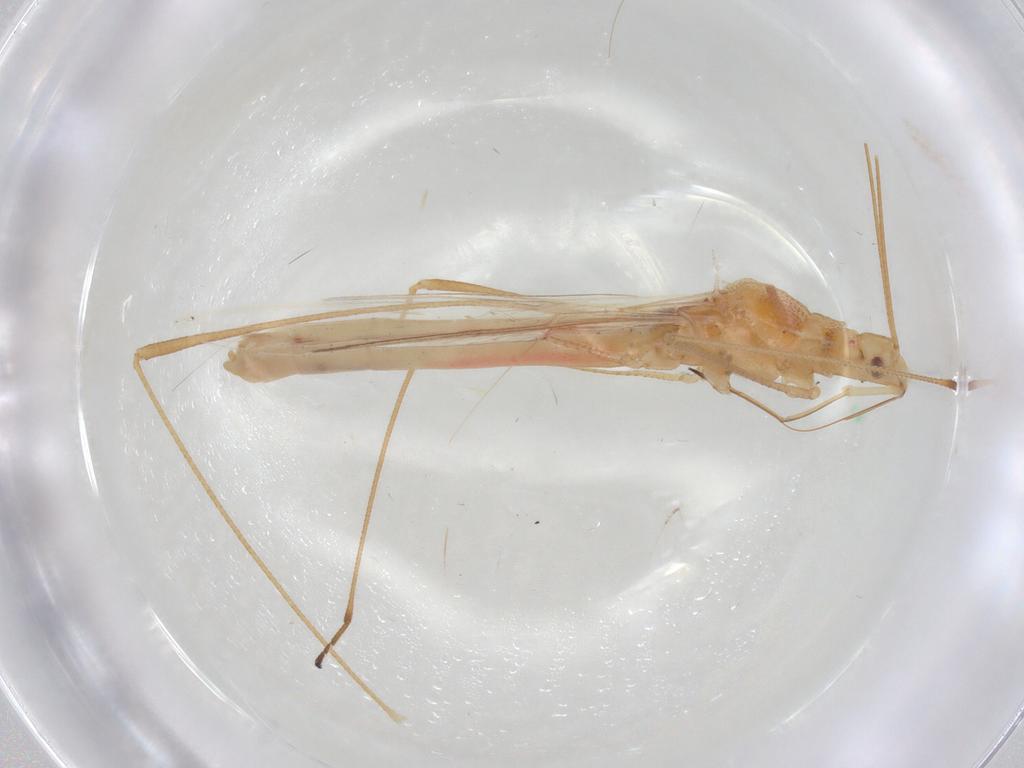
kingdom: Animalia
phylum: Arthropoda
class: Insecta
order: Hemiptera
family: Berytidae
